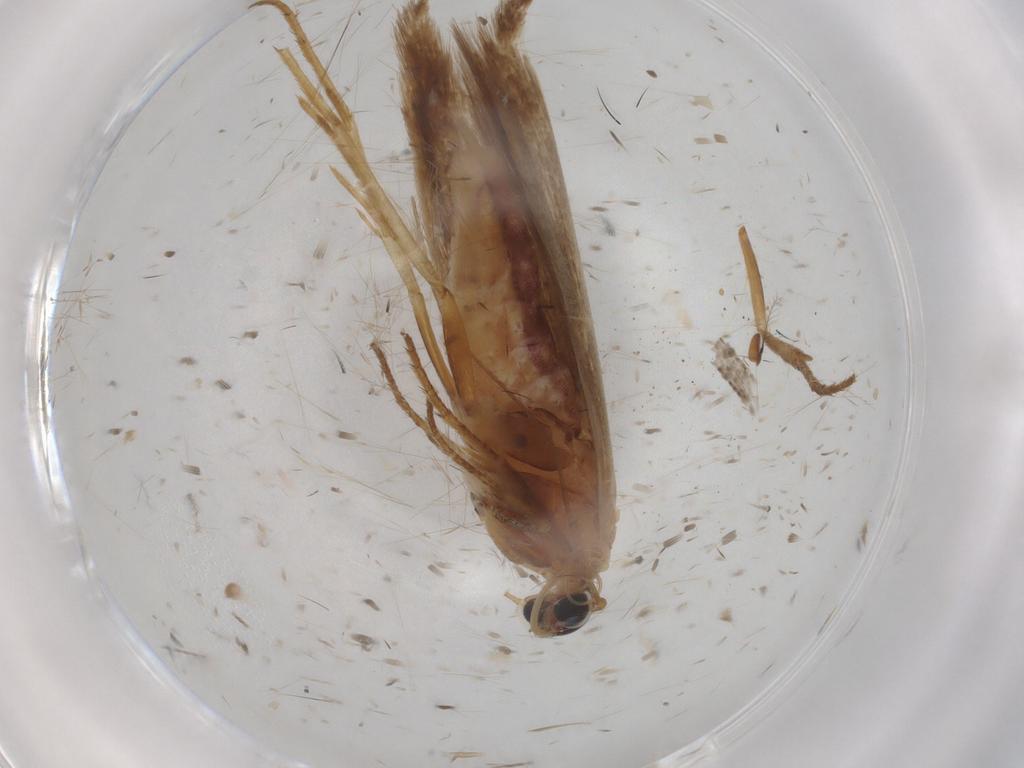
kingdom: Animalia
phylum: Arthropoda
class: Insecta
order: Lepidoptera
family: Scythrididae
